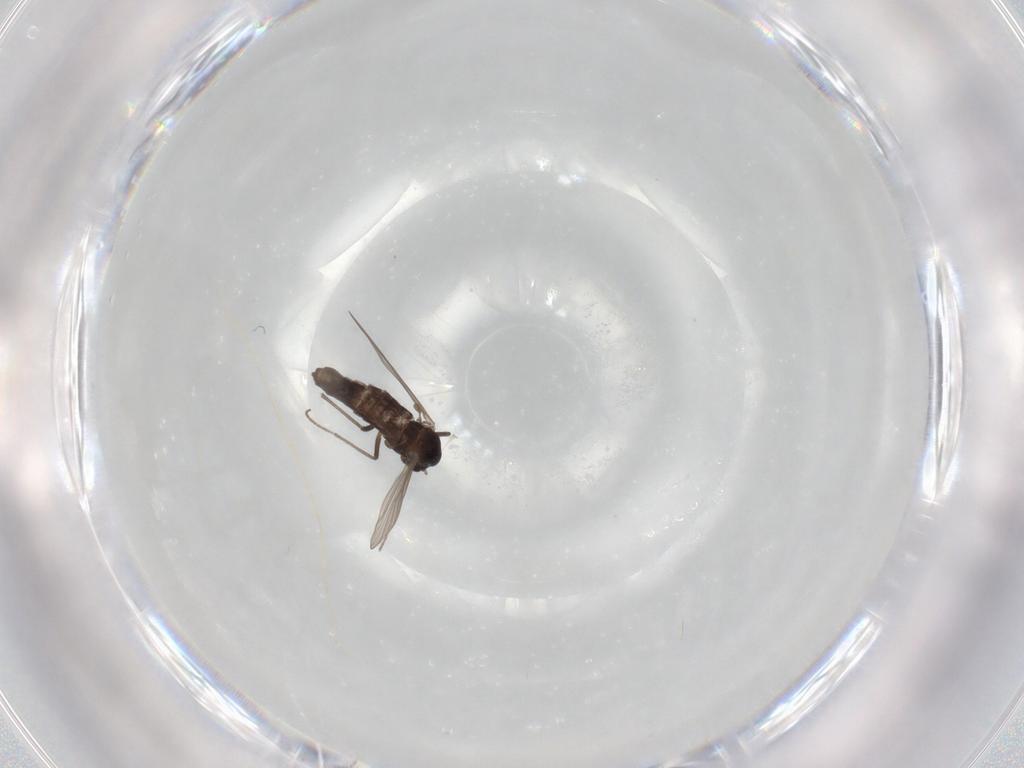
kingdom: Animalia
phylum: Arthropoda
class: Insecta
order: Diptera
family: Chironomidae
